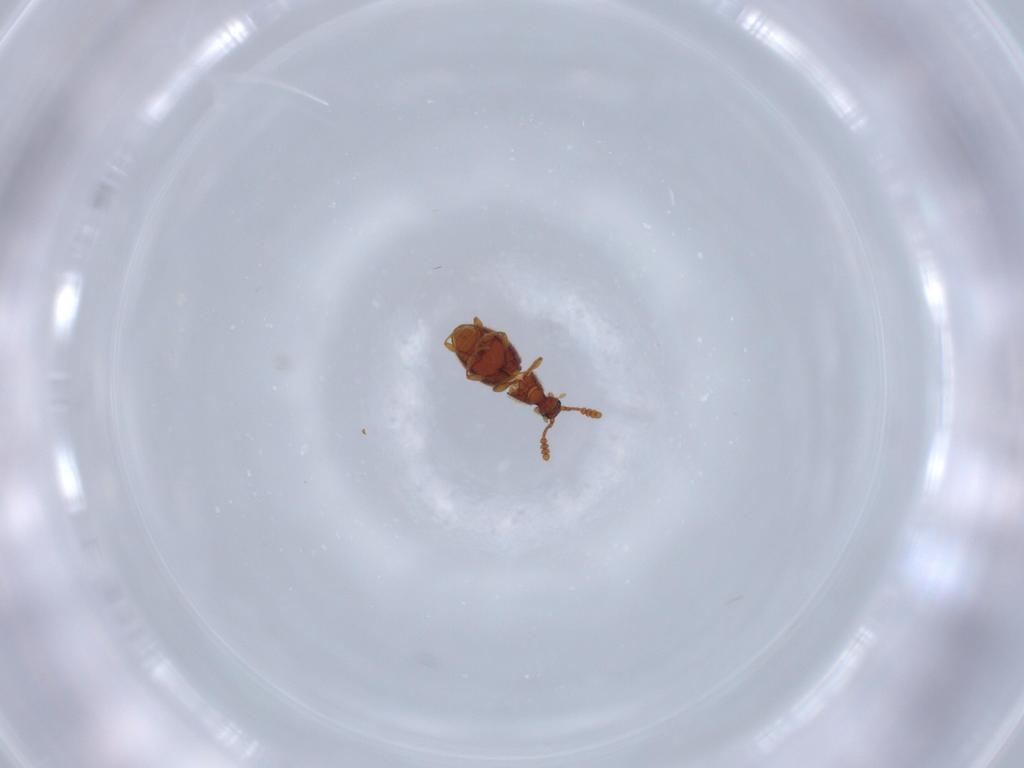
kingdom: Animalia
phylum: Arthropoda
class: Insecta
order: Coleoptera
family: Staphylinidae
